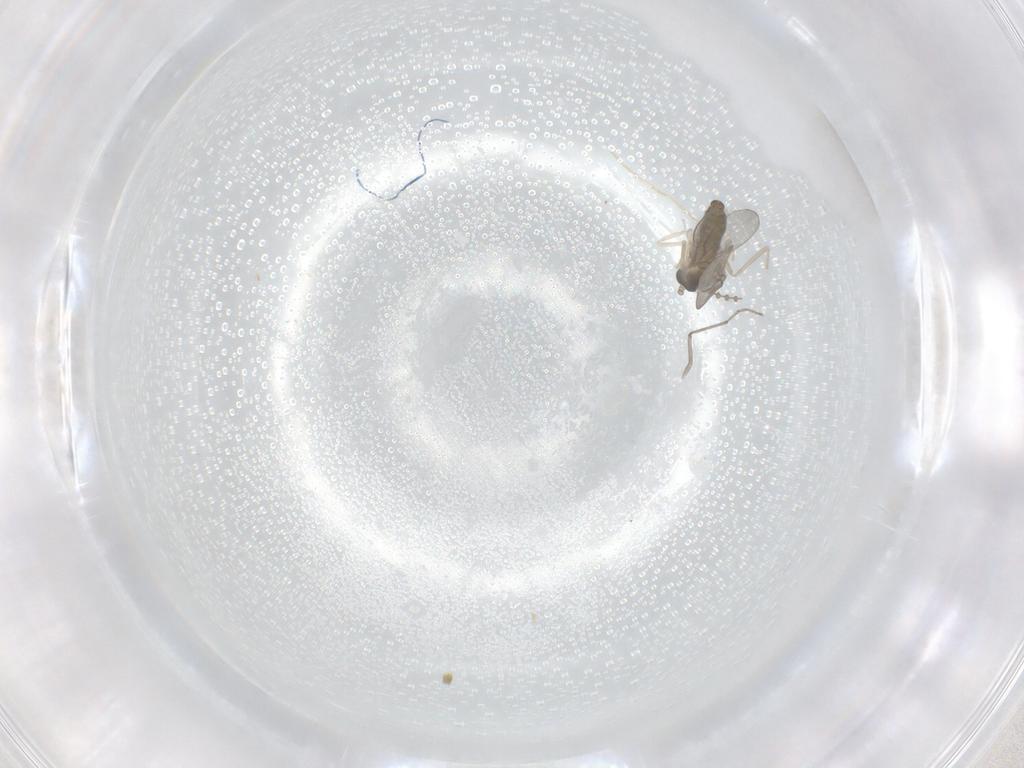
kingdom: Animalia
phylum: Arthropoda
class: Insecta
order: Diptera
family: Chironomidae
